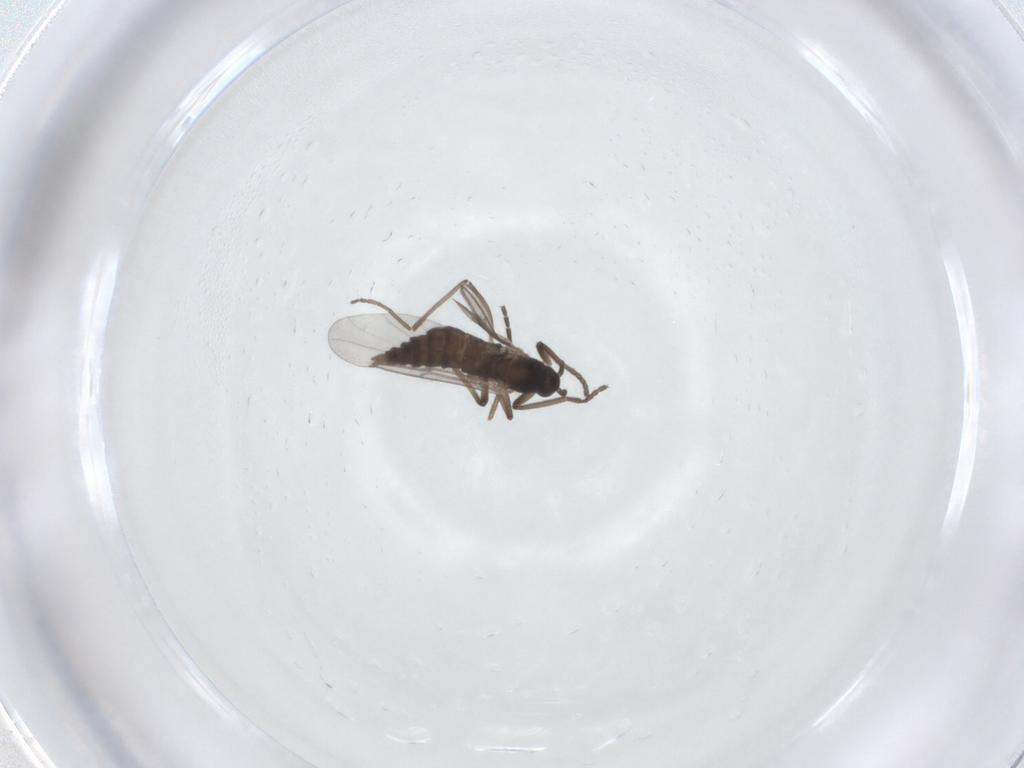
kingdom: Animalia
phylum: Arthropoda
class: Insecta
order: Diptera
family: Cecidomyiidae
